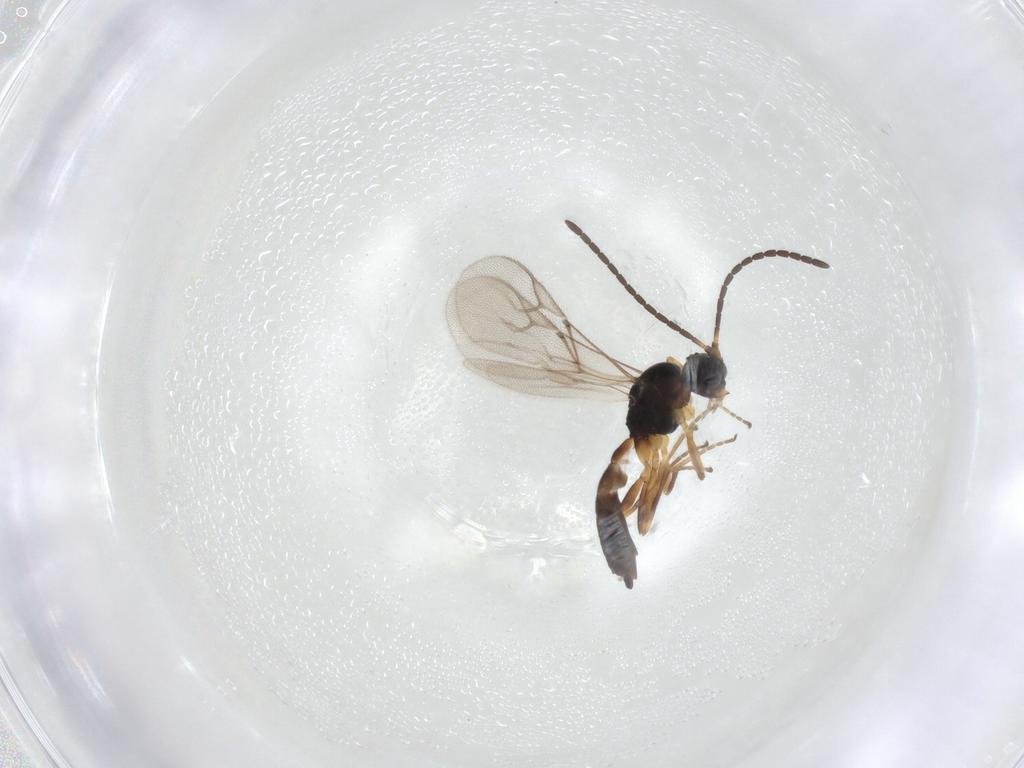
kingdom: Animalia
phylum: Arthropoda
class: Insecta
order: Hymenoptera
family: Braconidae
